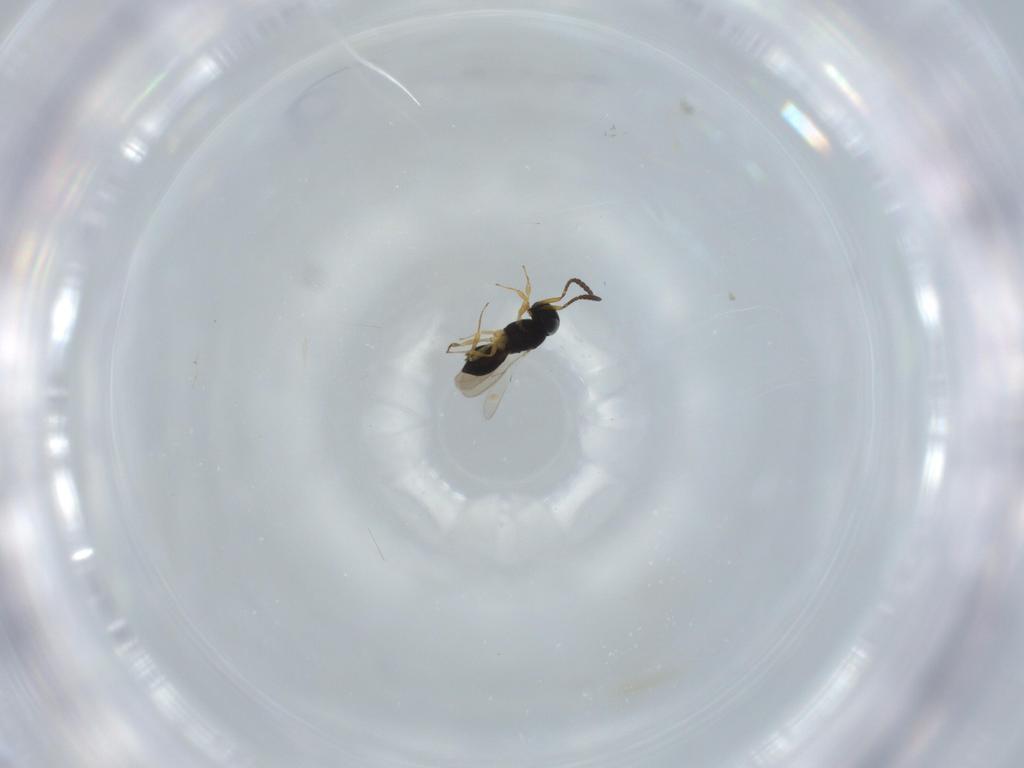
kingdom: Animalia
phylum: Arthropoda
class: Insecta
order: Hymenoptera
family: Scelionidae
